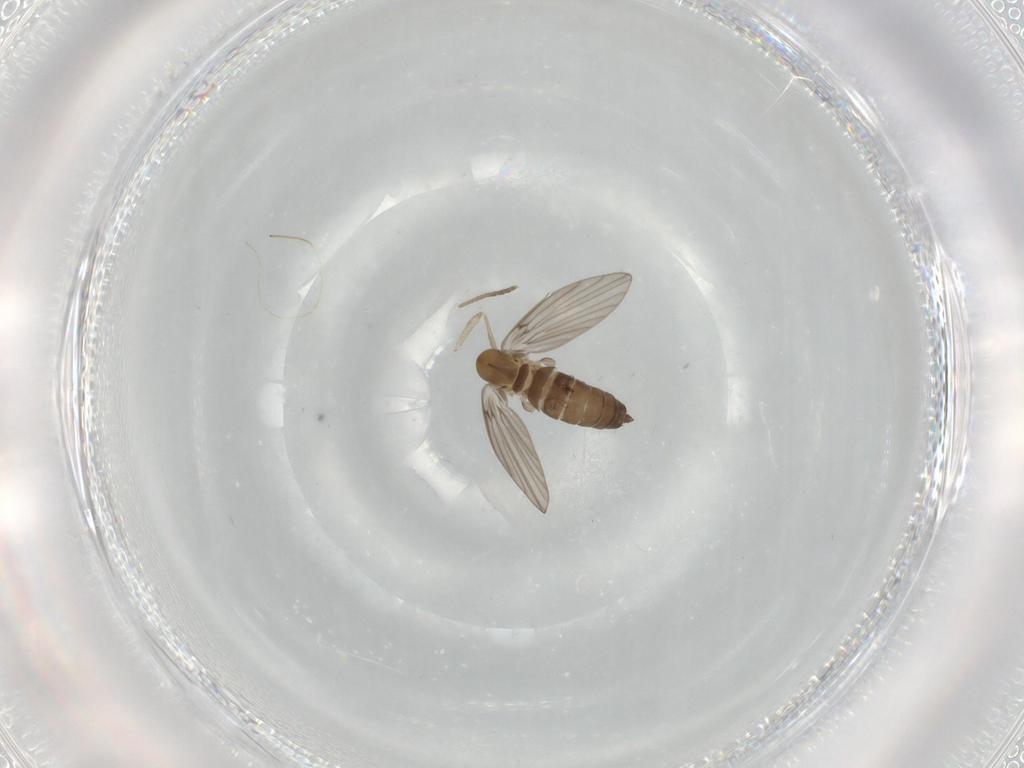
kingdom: Animalia
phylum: Arthropoda
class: Insecta
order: Diptera
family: Psychodidae
